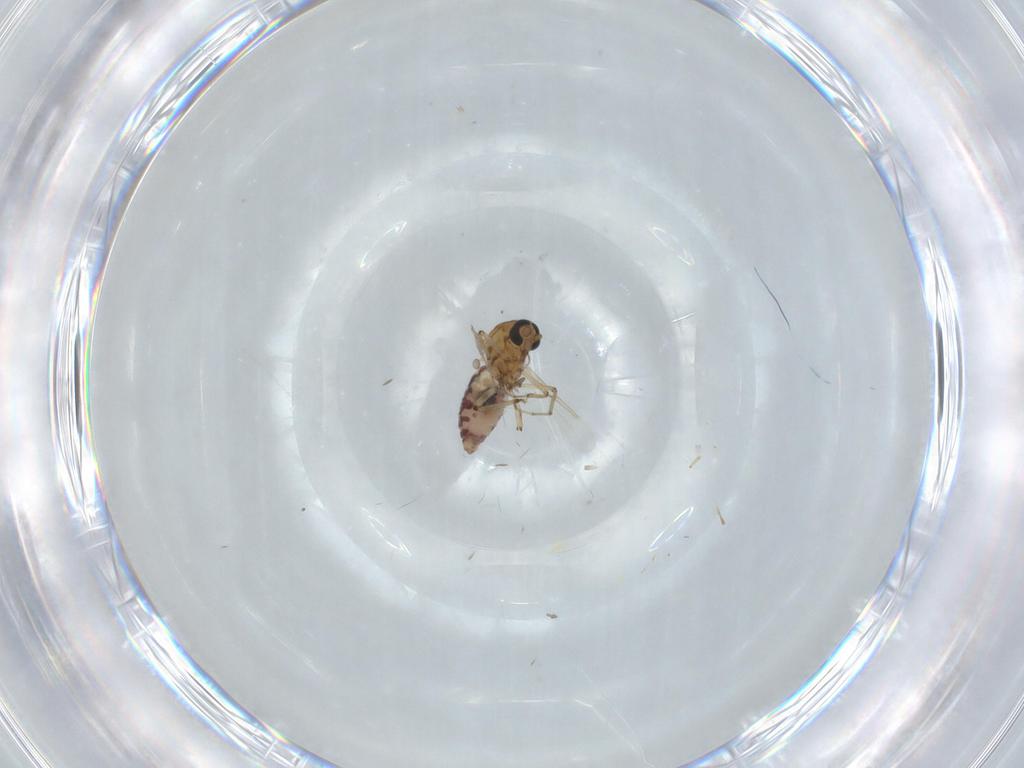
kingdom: Animalia
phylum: Arthropoda
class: Insecta
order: Diptera
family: Ceratopogonidae
